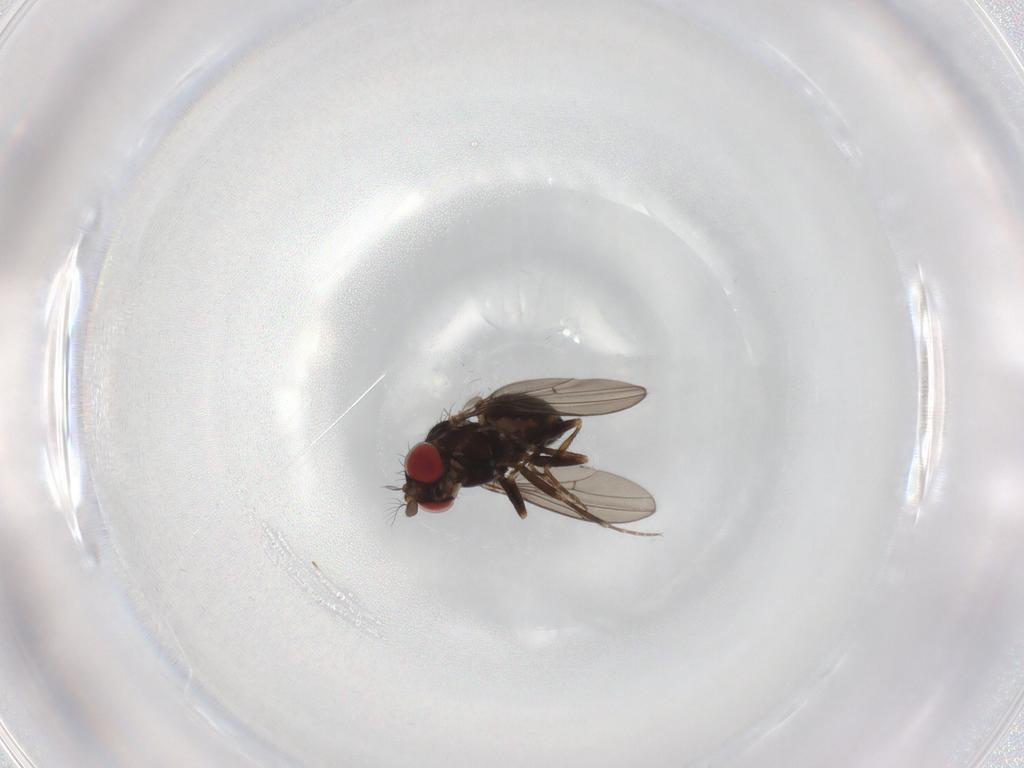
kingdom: Animalia
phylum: Arthropoda
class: Insecta
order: Diptera
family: Ephydridae
